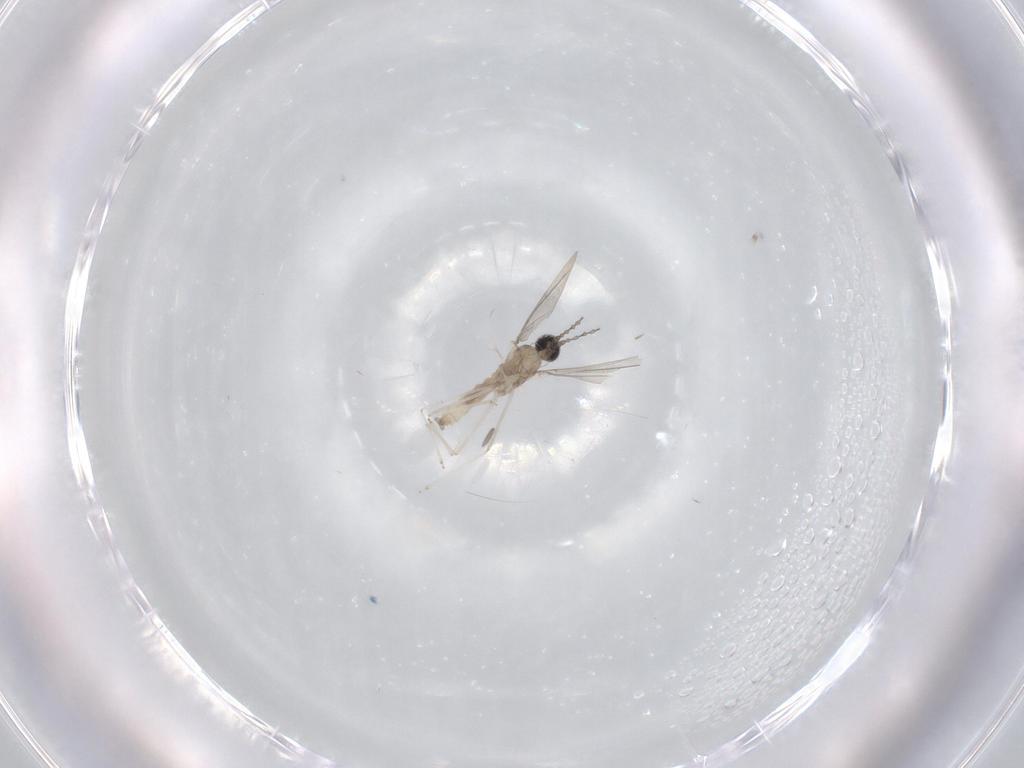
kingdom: Animalia
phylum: Arthropoda
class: Insecta
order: Diptera
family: Cecidomyiidae
